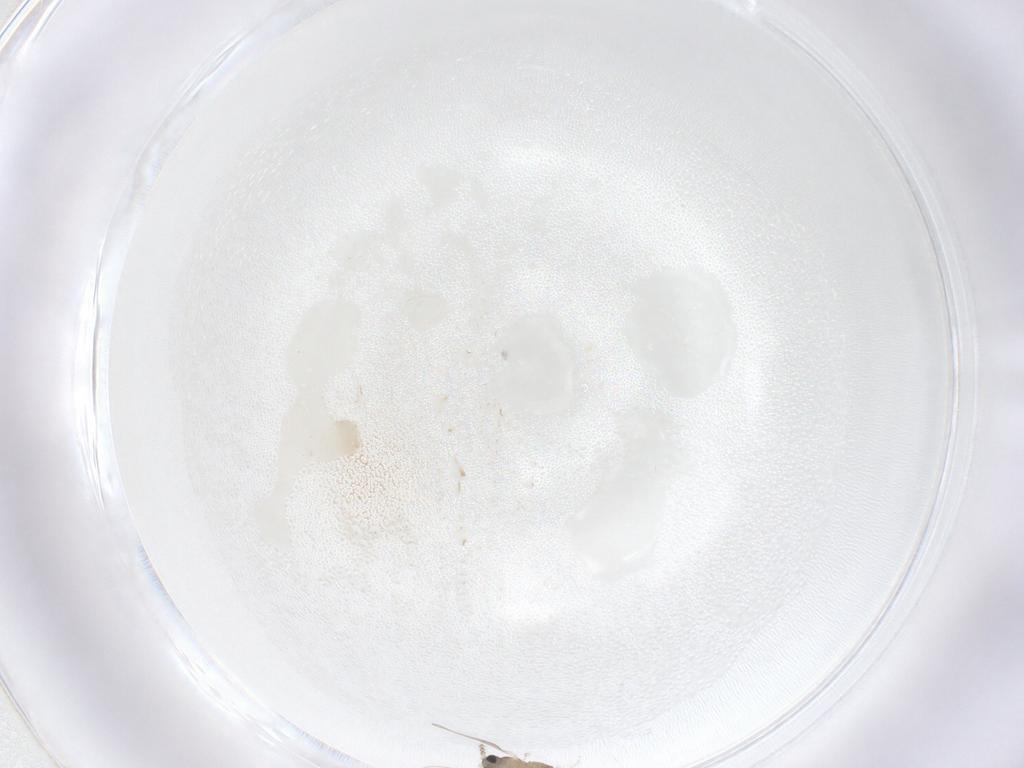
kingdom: Animalia
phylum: Arthropoda
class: Insecta
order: Diptera
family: Cecidomyiidae
